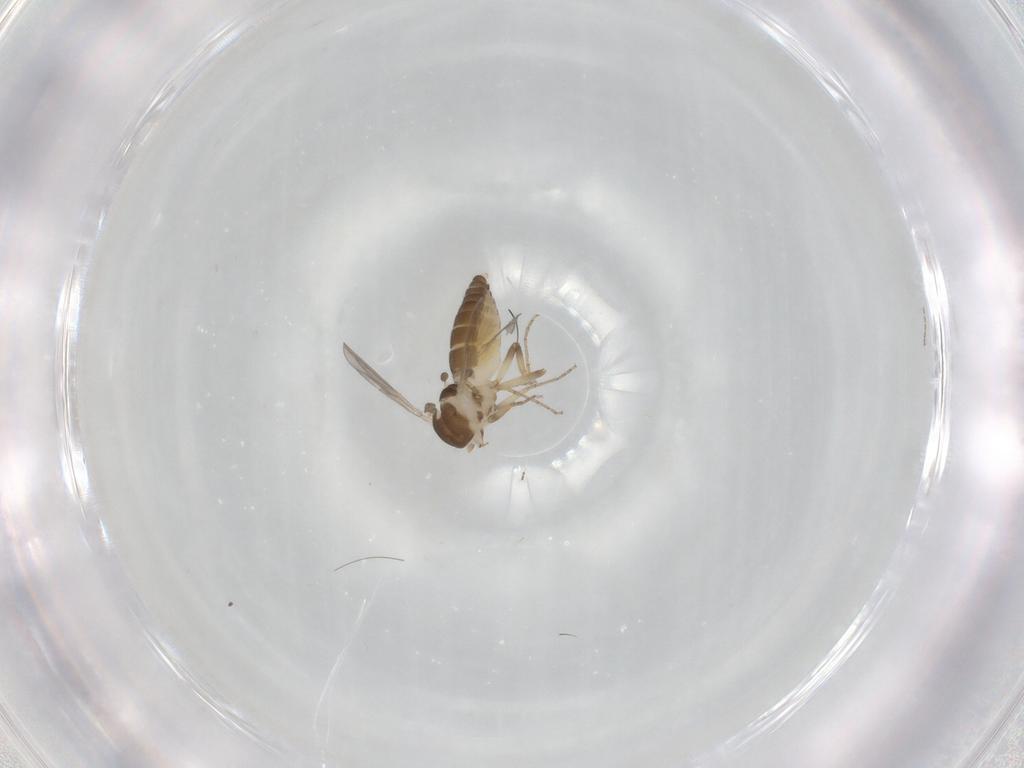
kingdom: Animalia
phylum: Arthropoda
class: Insecta
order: Diptera
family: Ceratopogonidae
